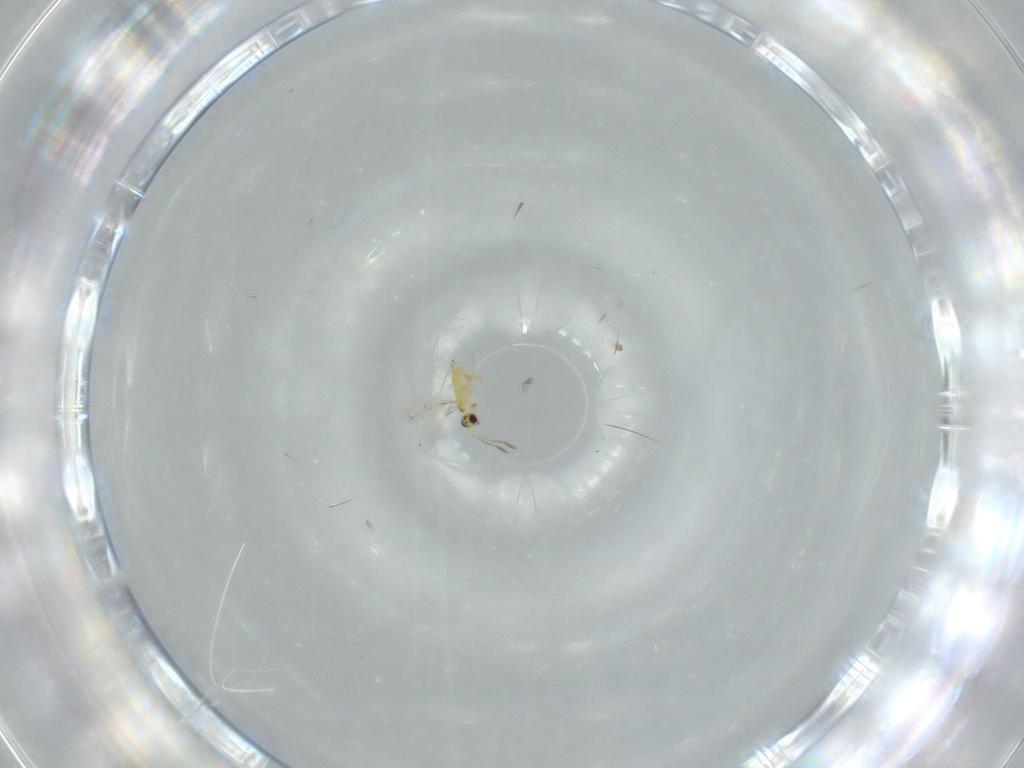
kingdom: Animalia
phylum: Arthropoda
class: Insecta
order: Hymenoptera
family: Mymaridae
